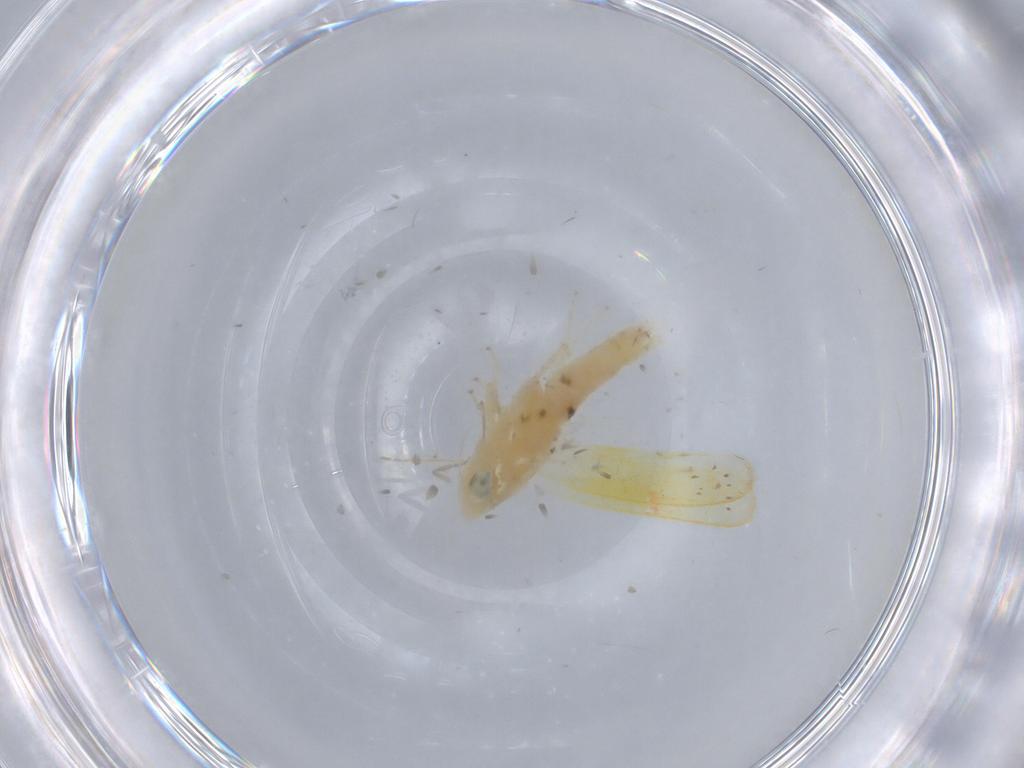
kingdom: Animalia
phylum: Arthropoda
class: Insecta
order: Hemiptera
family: Cicadellidae
